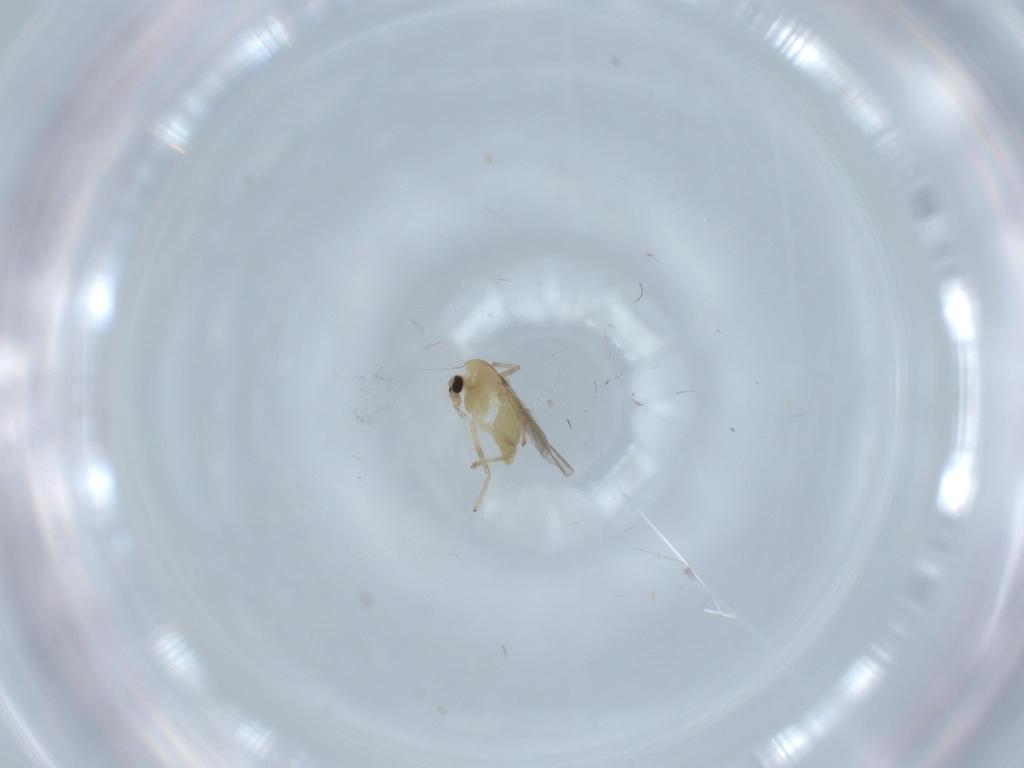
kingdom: Animalia
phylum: Arthropoda
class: Insecta
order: Diptera
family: Chironomidae
